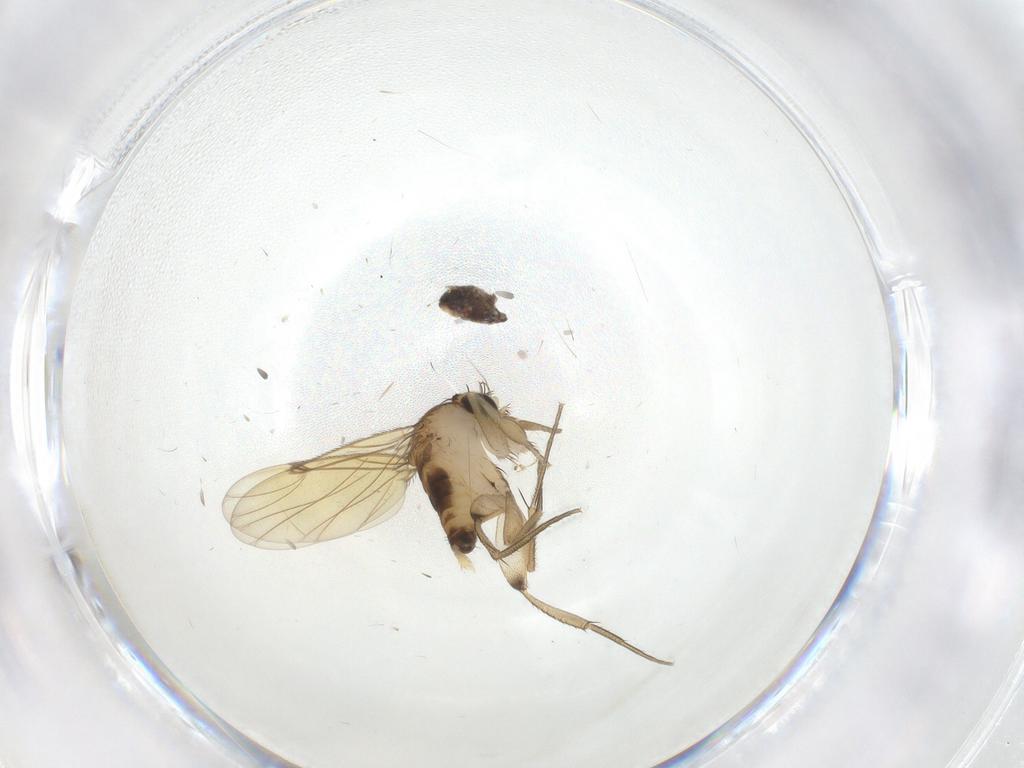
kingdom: Animalia
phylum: Arthropoda
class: Insecta
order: Diptera
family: Phoridae
